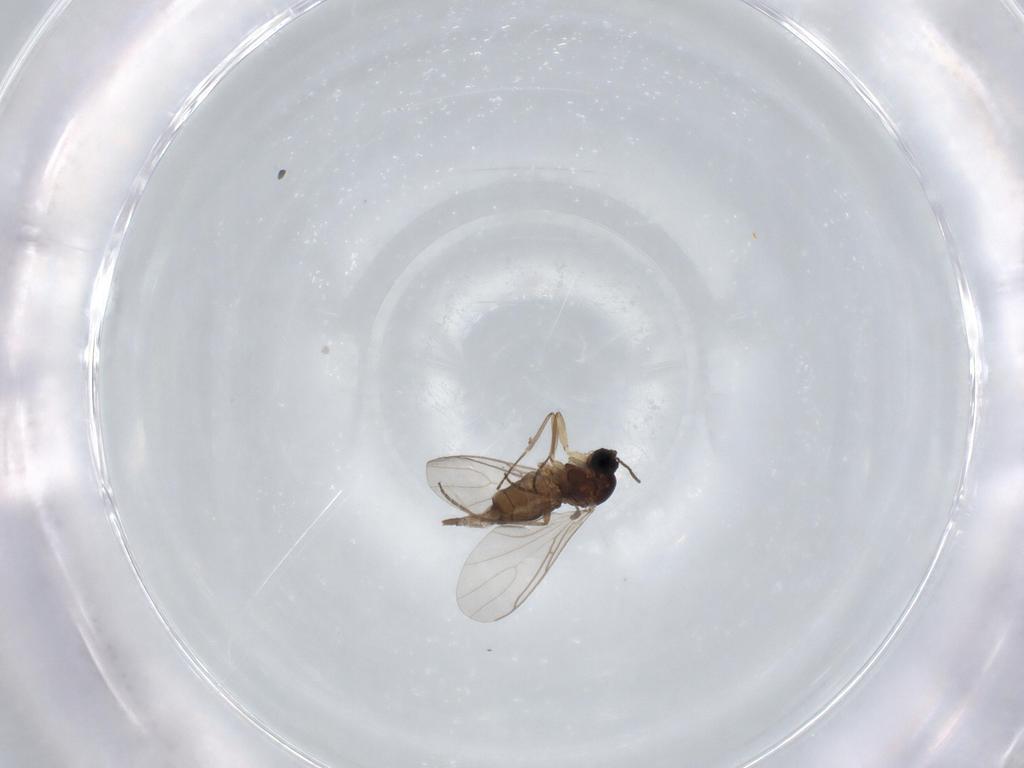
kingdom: Animalia
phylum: Arthropoda
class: Insecta
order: Diptera
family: Sciaridae
